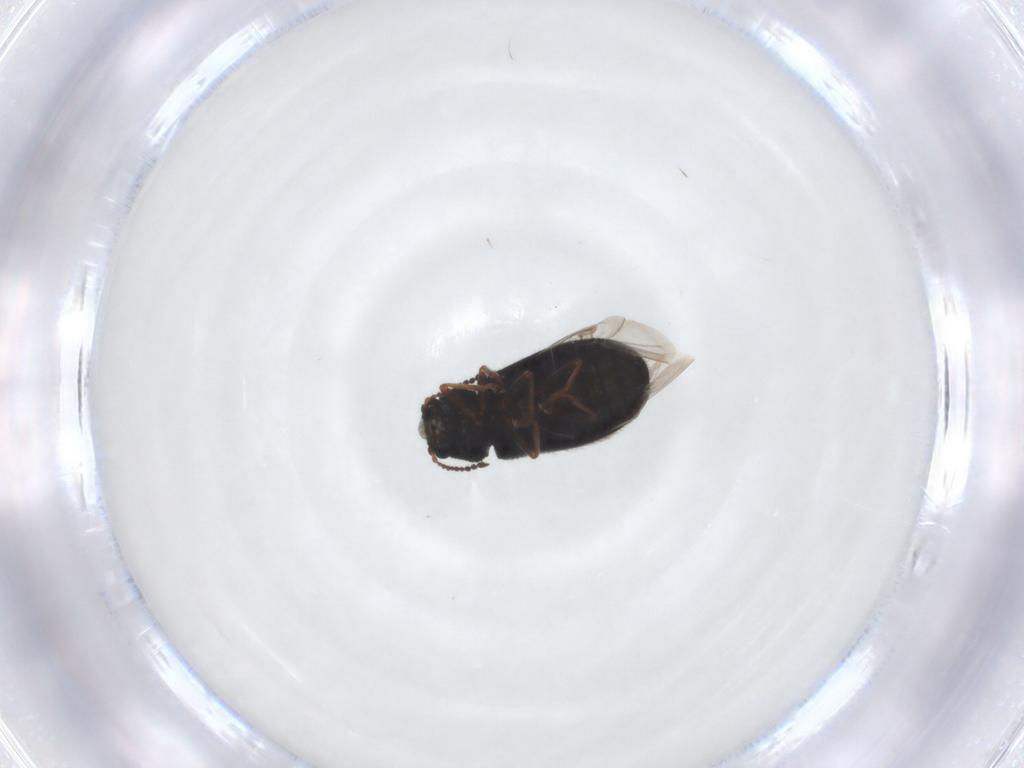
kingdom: Animalia
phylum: Arthropoda
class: Insecta
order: Coleoptera
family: Melyridae
